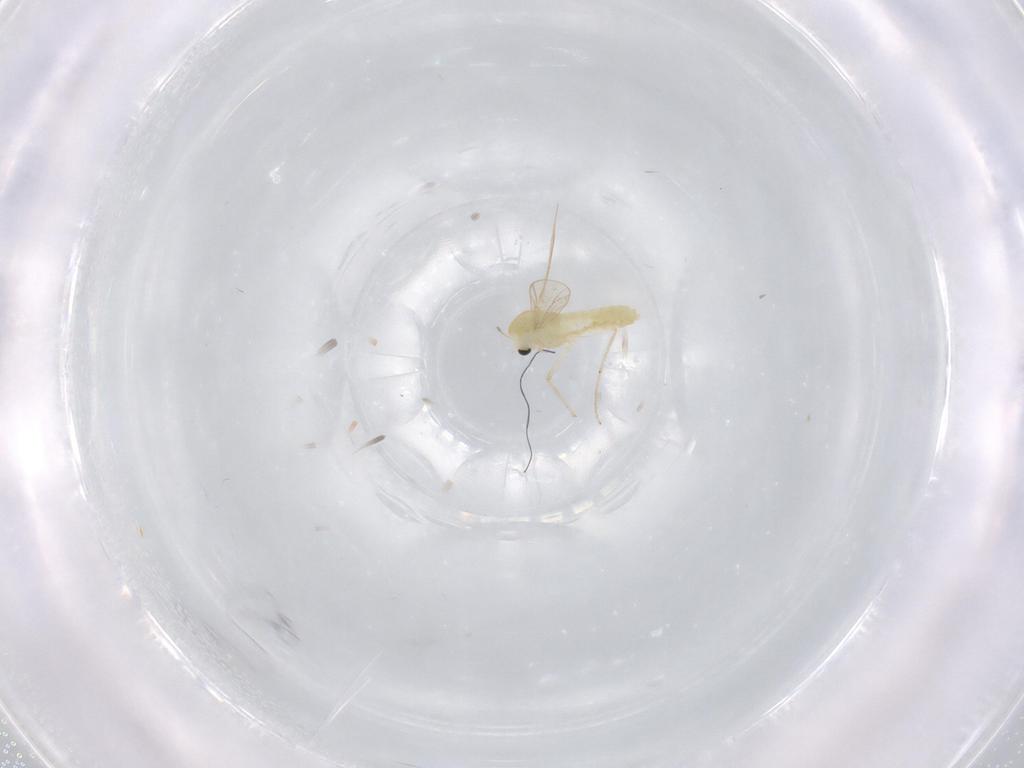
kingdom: Animalia
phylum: Arthropoda
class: Insecta
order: Diptera
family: Chironomidae
